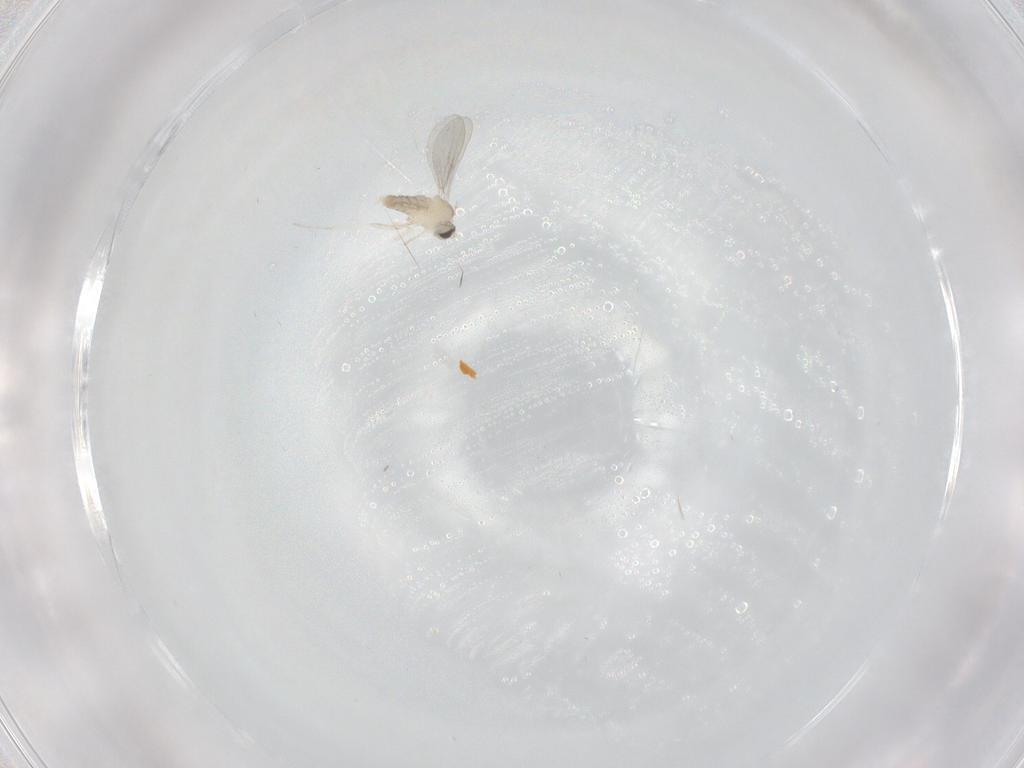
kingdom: Animalia
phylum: Arthropoda
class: Insecta
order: Diptera
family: Cecidomyiidae
